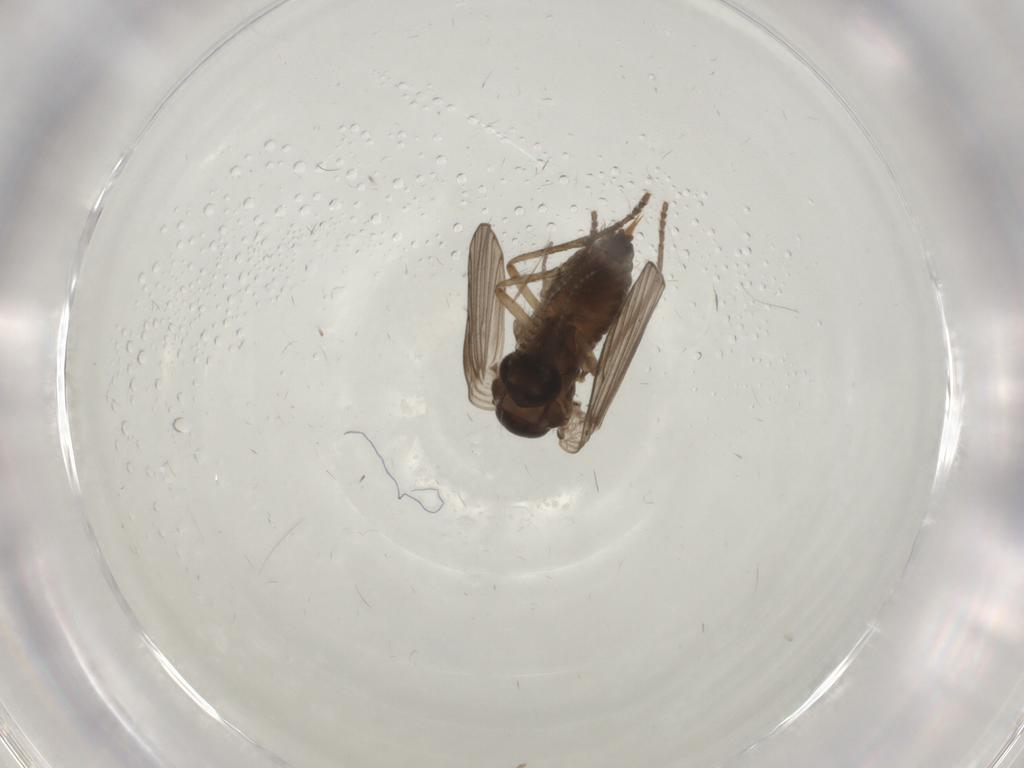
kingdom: Animalia
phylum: Arthropoda
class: Insecta
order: Diptera
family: Psychodidae
